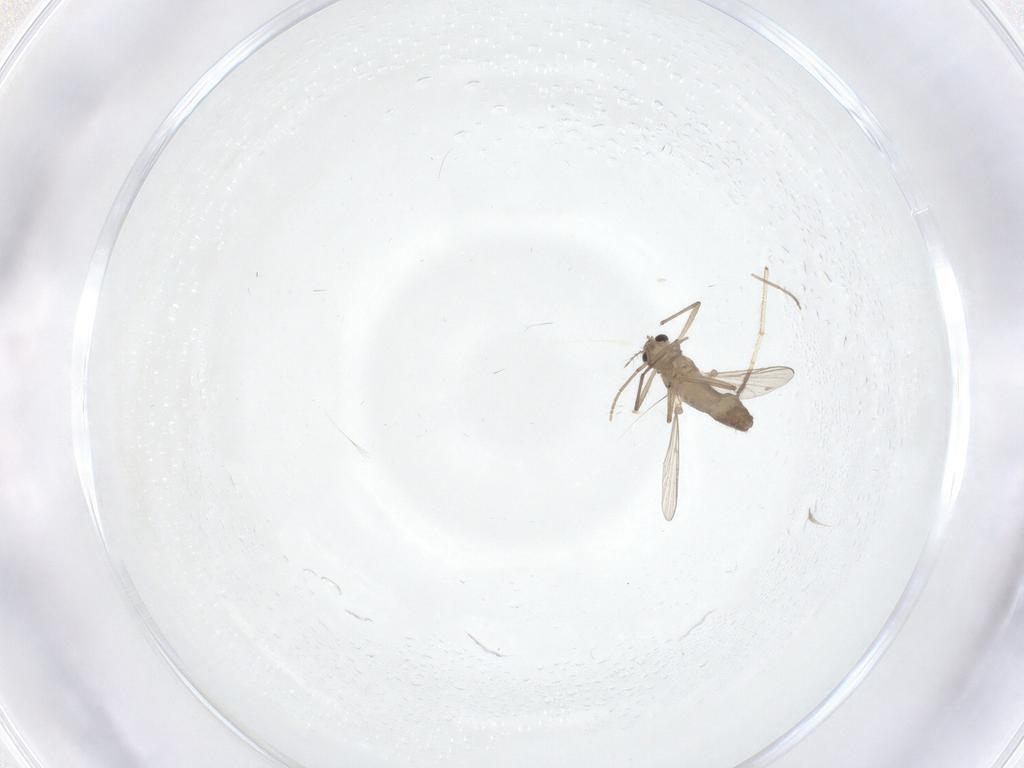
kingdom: Animalia
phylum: Arthropoda
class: Insecta
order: Diptera
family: Chironomidae
